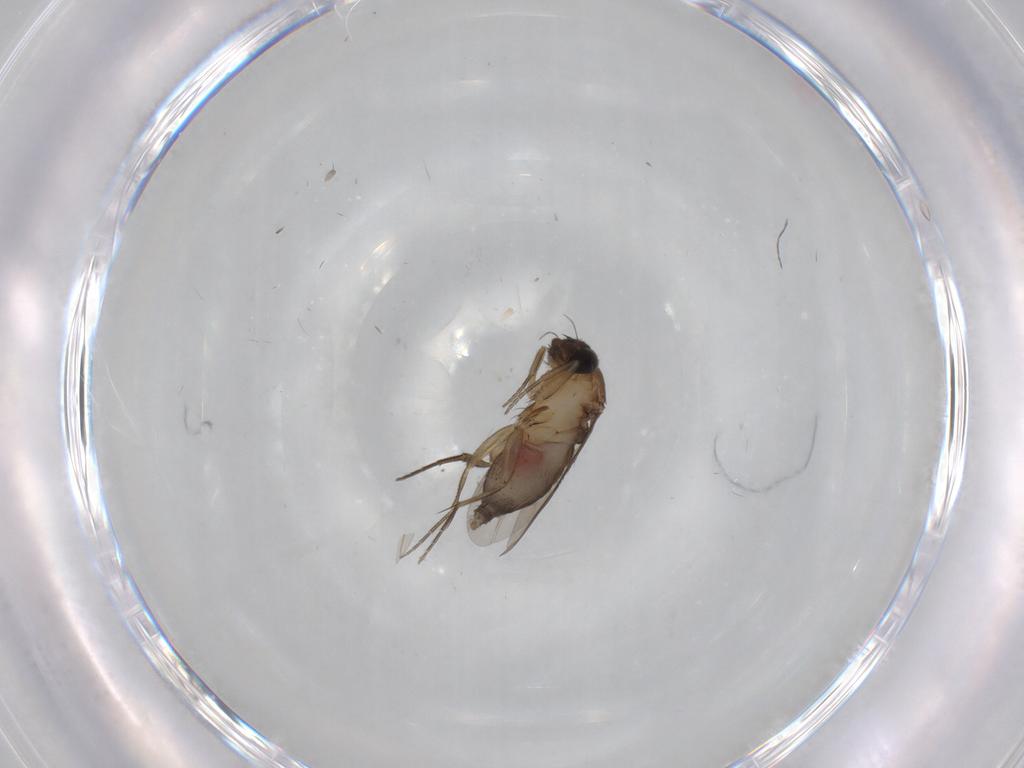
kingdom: Animalia
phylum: Arthropoda
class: Insecta
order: Diptera
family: Phoridae
